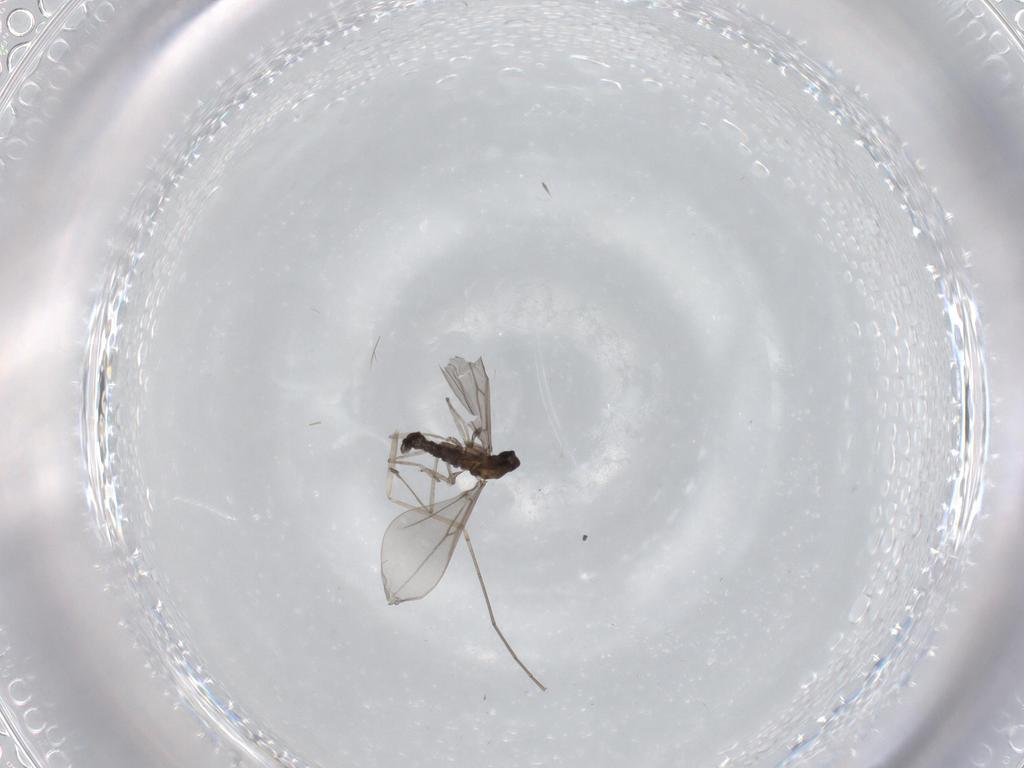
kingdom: Animalia
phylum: Arthropoda
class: Insecta
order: Diptera
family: Cecidomyiidae
